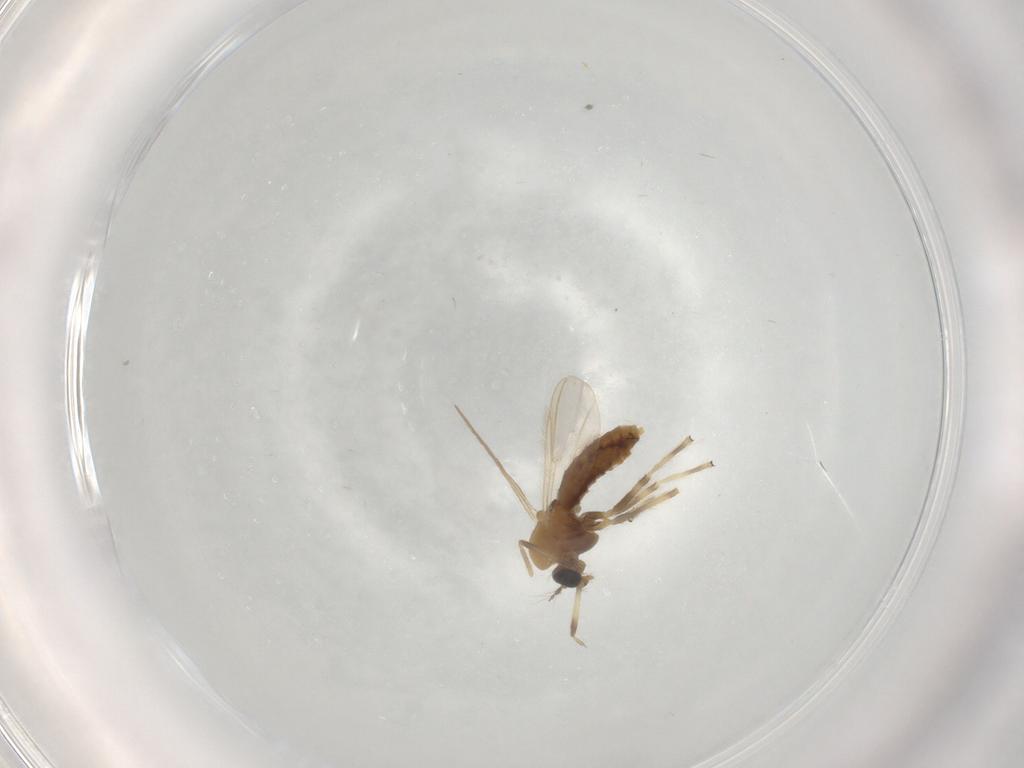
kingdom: Animalia
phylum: Arthropoda
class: Insecta
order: Diptera
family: Chironomidae
